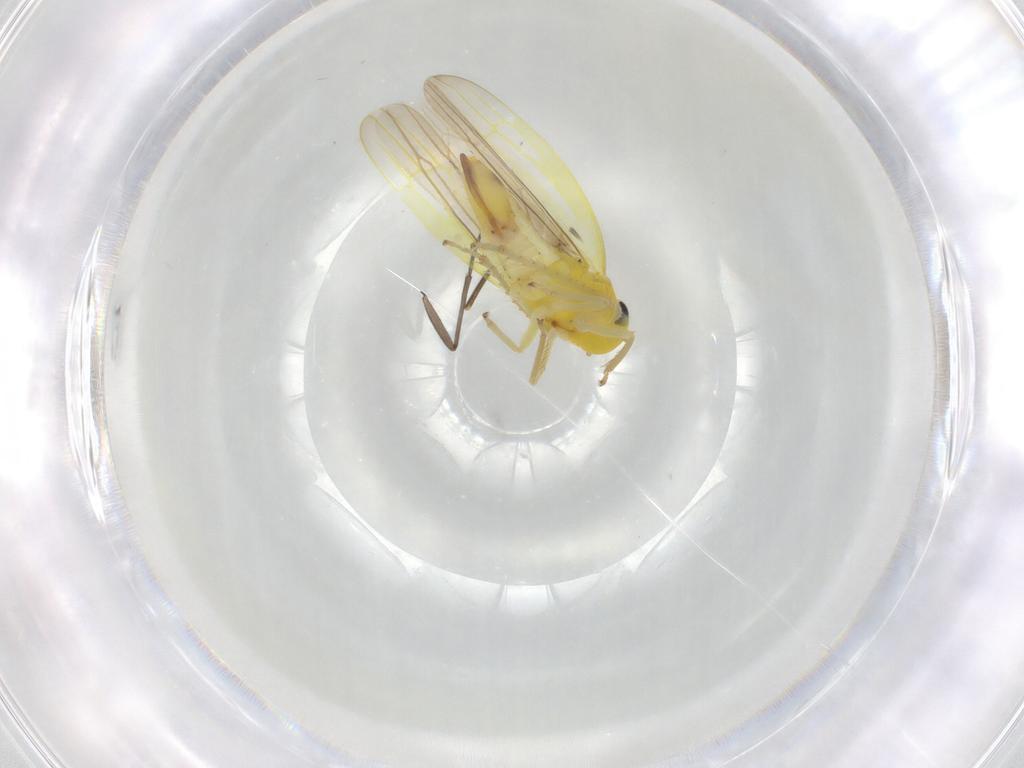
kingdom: Animalia
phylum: Arthropoda
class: Insecta
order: Hemiptera
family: Cicadellidae
